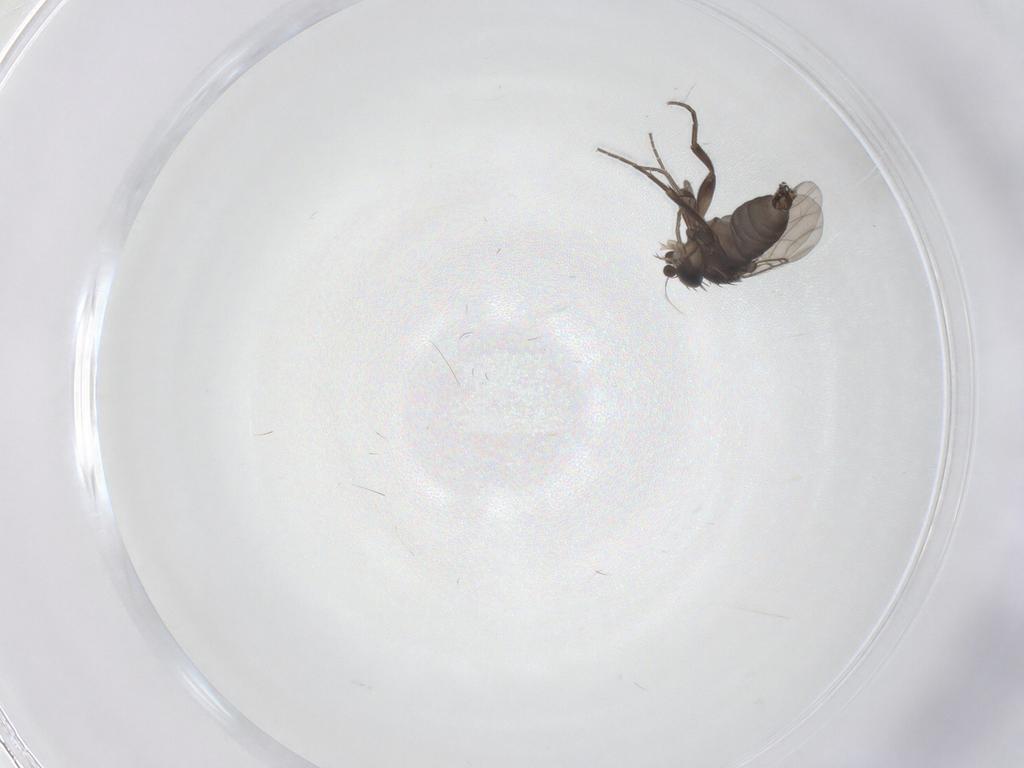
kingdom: Animalia
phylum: Arthropoda
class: Insecta
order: Diptera
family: Phoridae
